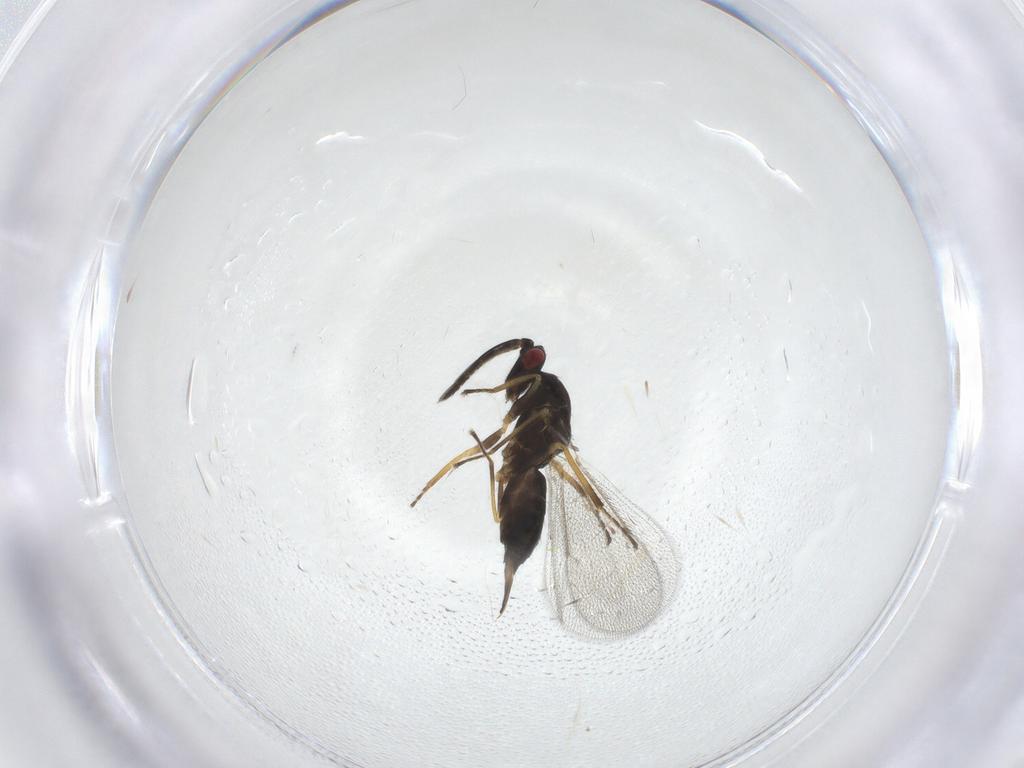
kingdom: Animalia
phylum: Arthropoda
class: Insecta
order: Hymenoptera
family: Eulophidae
